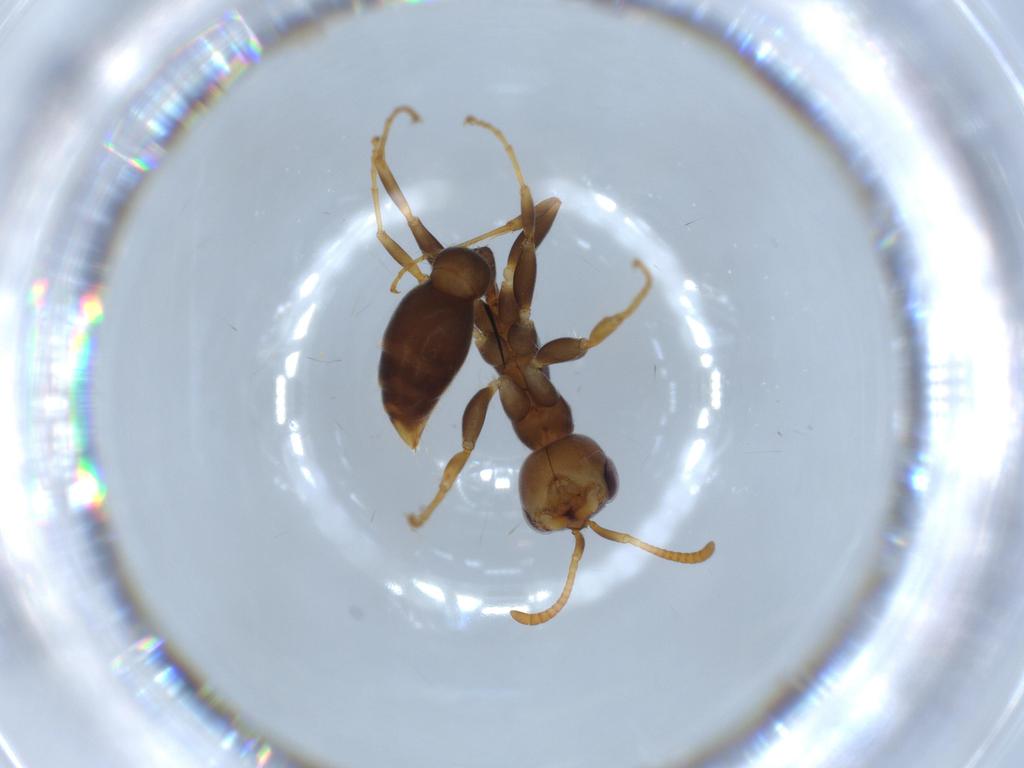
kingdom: Animalia
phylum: Arthropoda
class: Insecta
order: Hymenoptera
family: Formicidae
